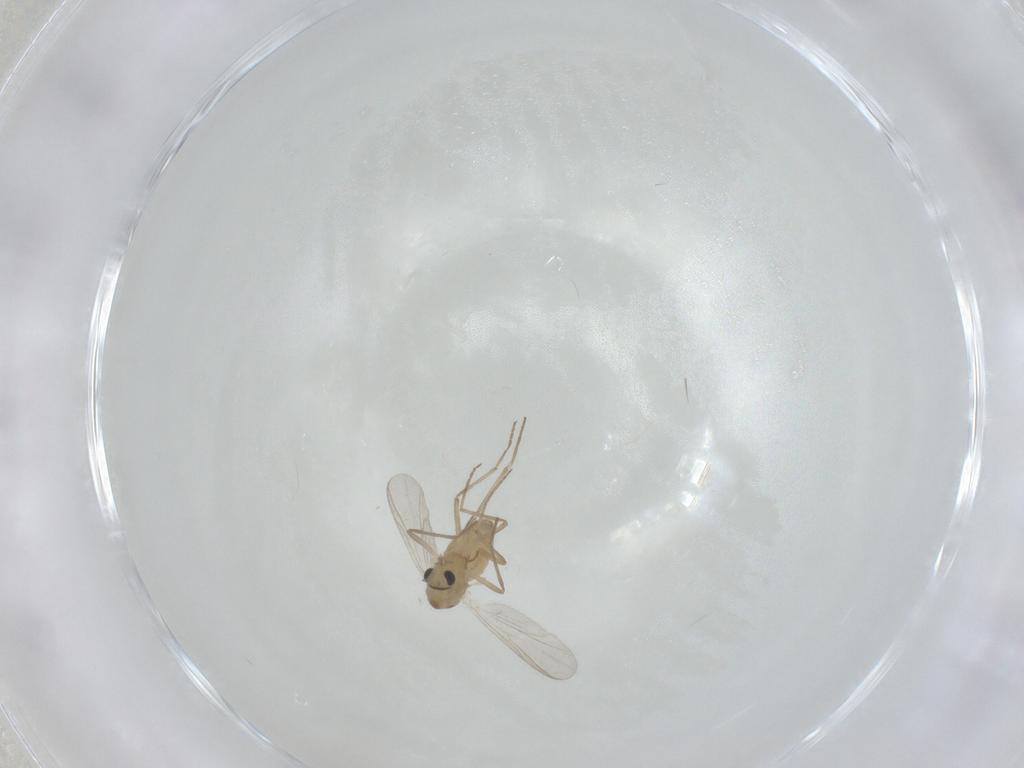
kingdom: Animalia
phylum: Arthropoda
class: Insecta
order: Diptera
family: Chironomidae
